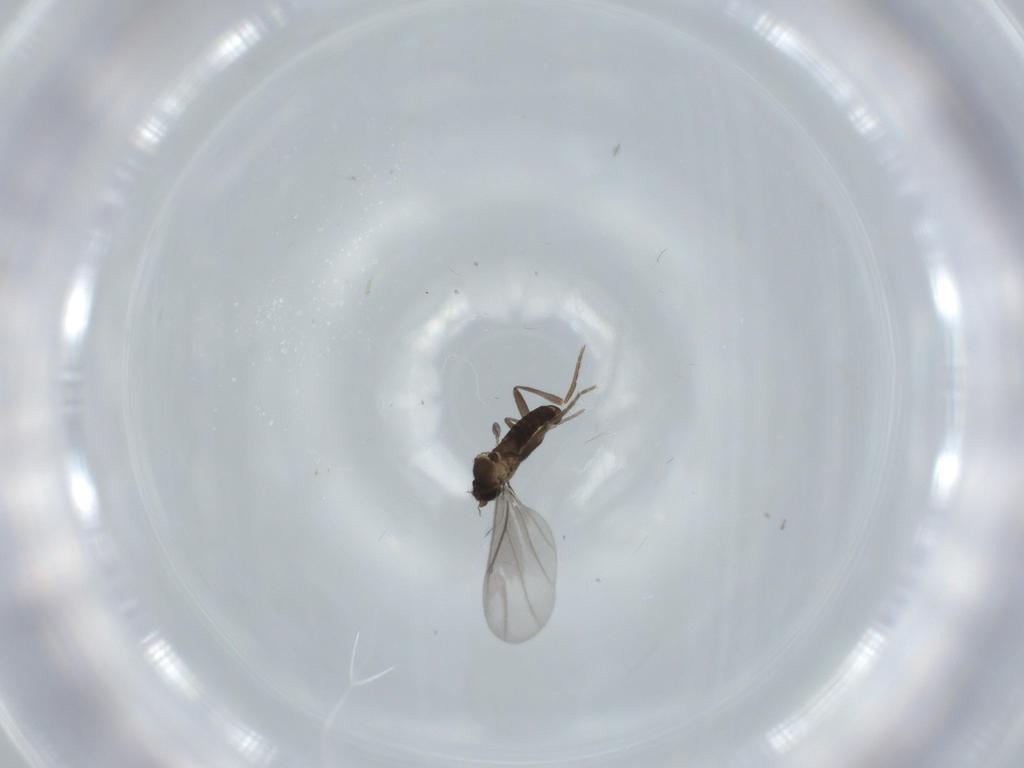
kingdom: Animalia
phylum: Arthropoda
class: Insecta
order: Diptera
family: Phoridae
